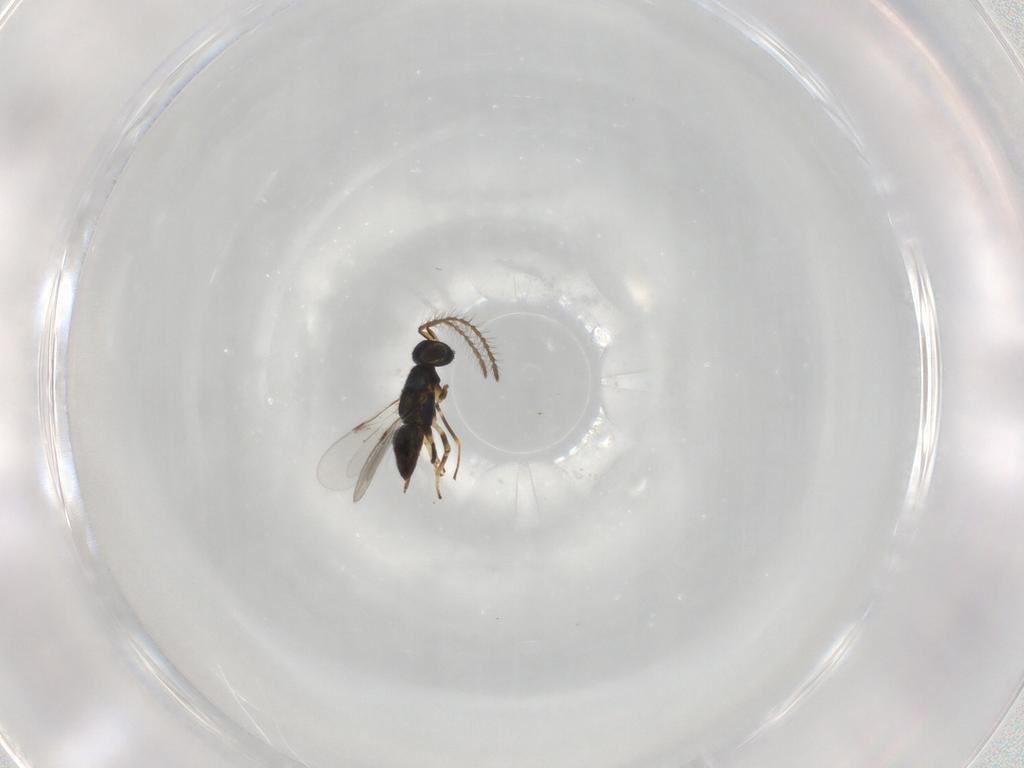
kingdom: Animalia
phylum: Arthropoda
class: Insecta
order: Hymenoptera
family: Encyrtidae
